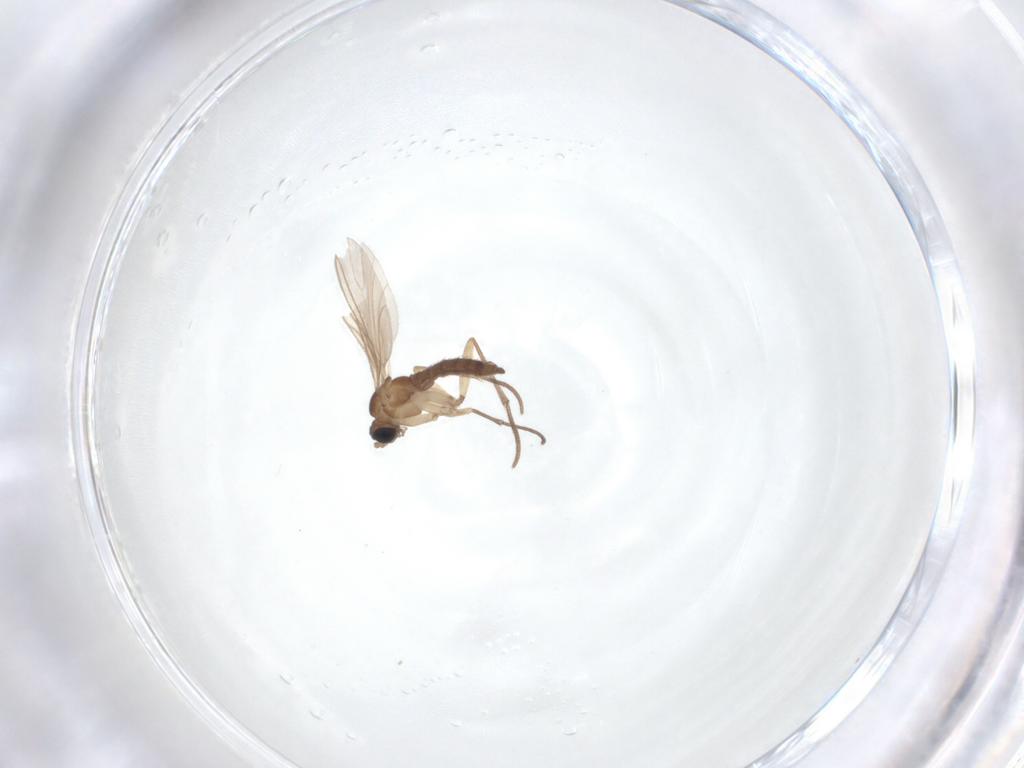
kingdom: Animalia
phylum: Arthropoda
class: Insecta
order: Diptera
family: Sciaridae
